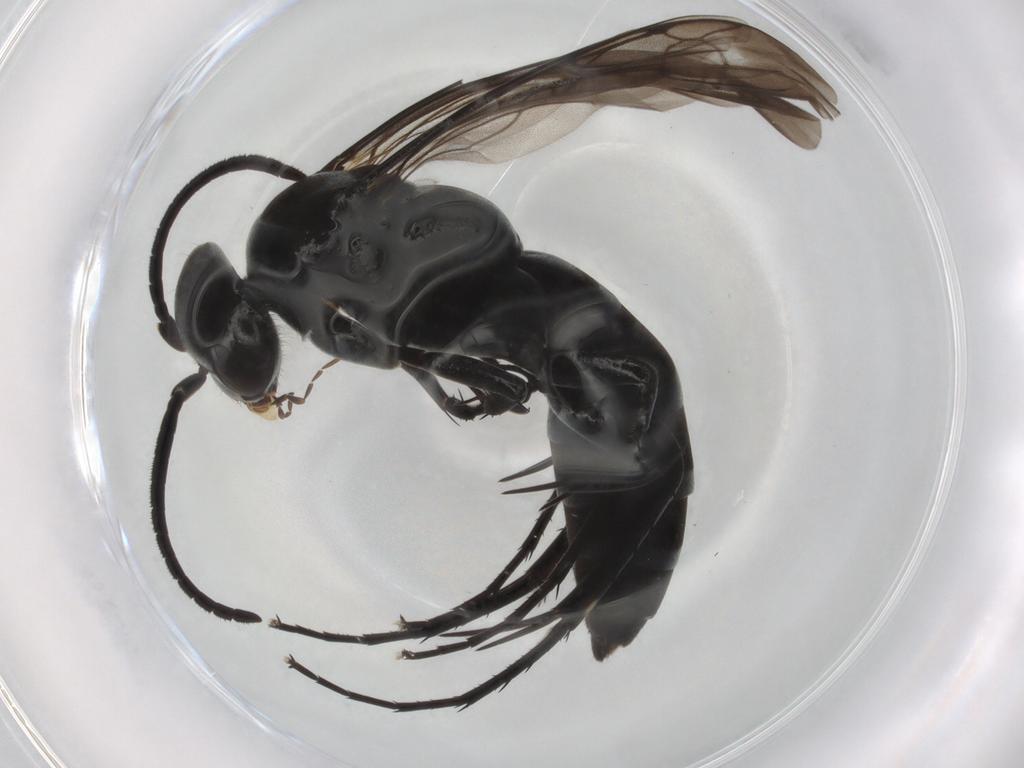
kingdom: Animalia
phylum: Arthropoda
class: Insecta
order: Hymenoptera
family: Pompilidae
